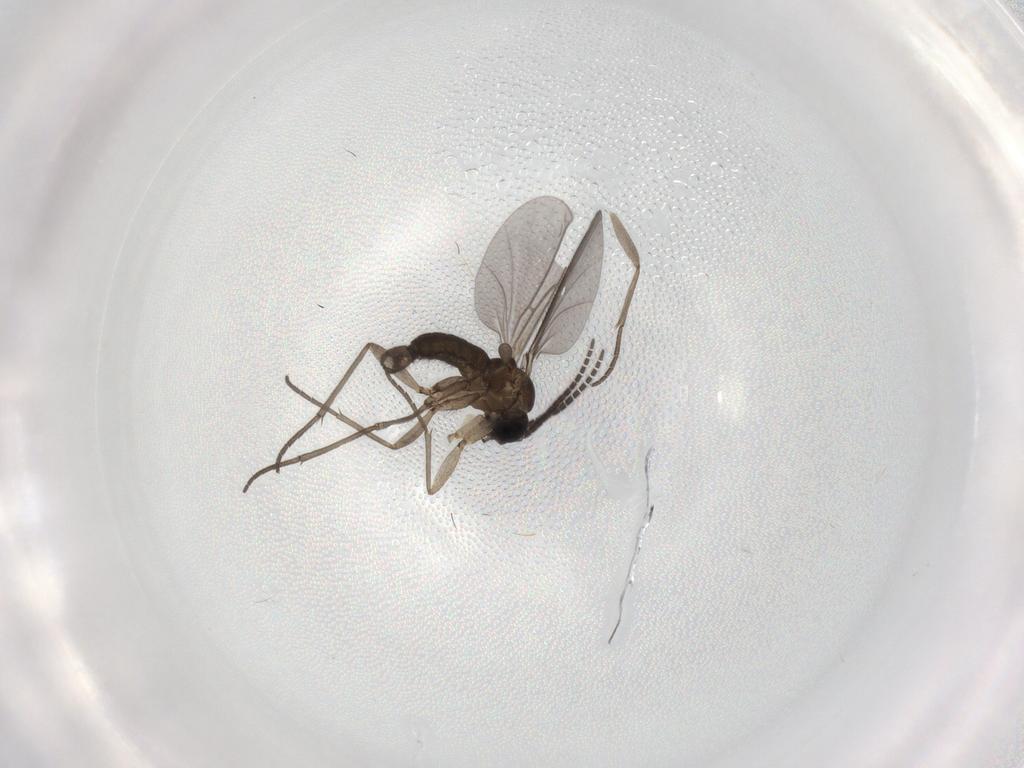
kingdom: Animalia
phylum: Arthropoda
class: Insecta
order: Diptera
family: Sciaridae
